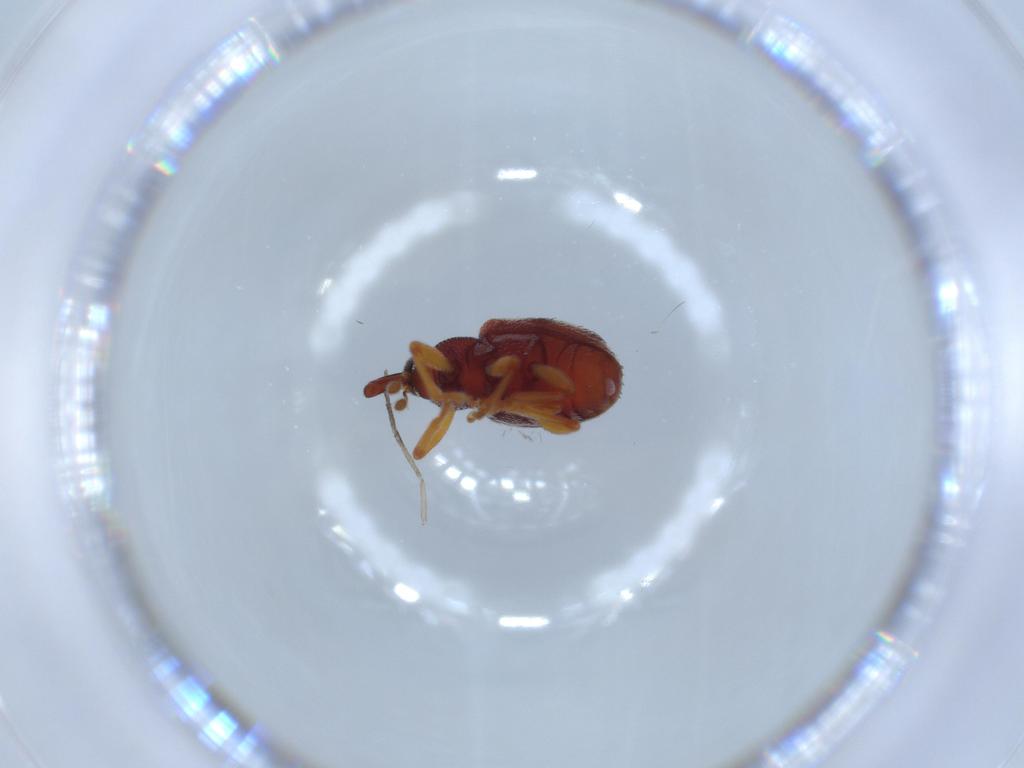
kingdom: Animalia
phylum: Arthropoda
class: Insecta
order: Coleoptera
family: Curculionidae
